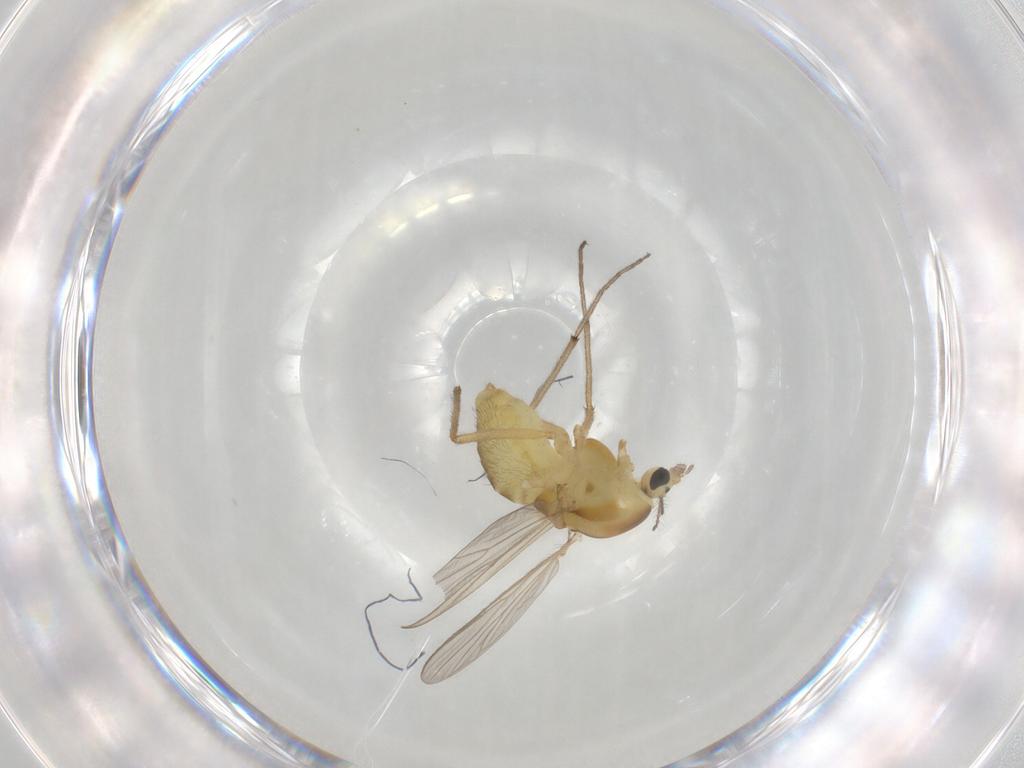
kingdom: Animalia
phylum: Arthropoda
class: Insecta
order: Diptera
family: Chironomidae
